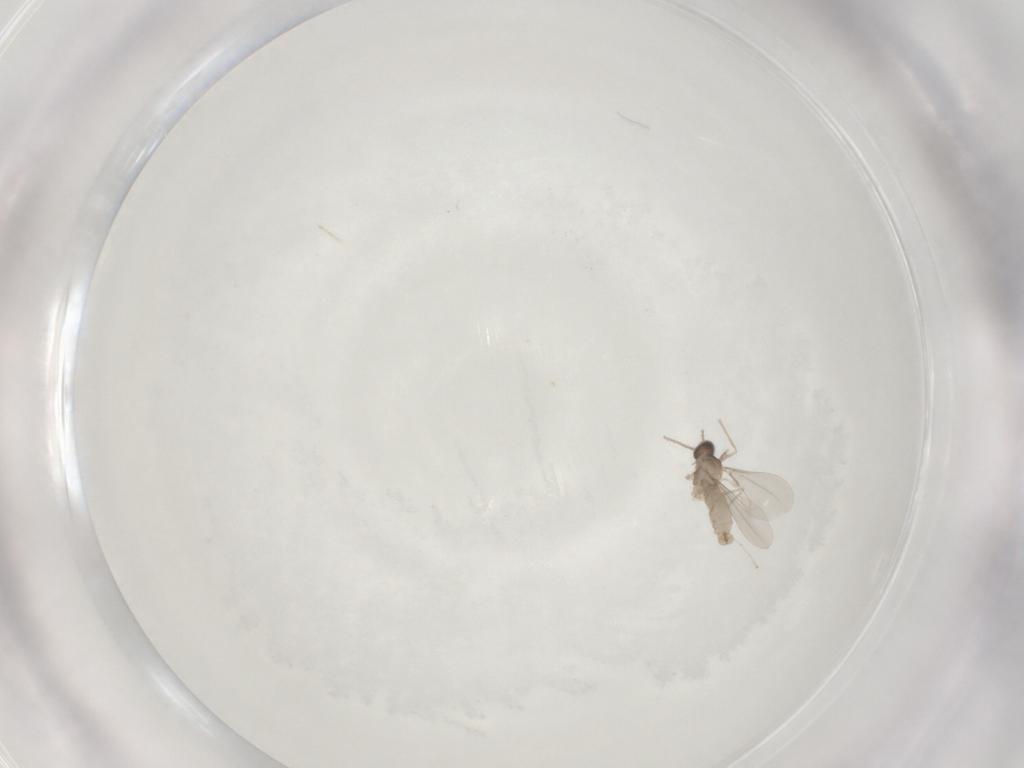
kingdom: Animalia
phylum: Arthropoda
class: Insecta
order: Diptera
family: Cecidomyiidae
